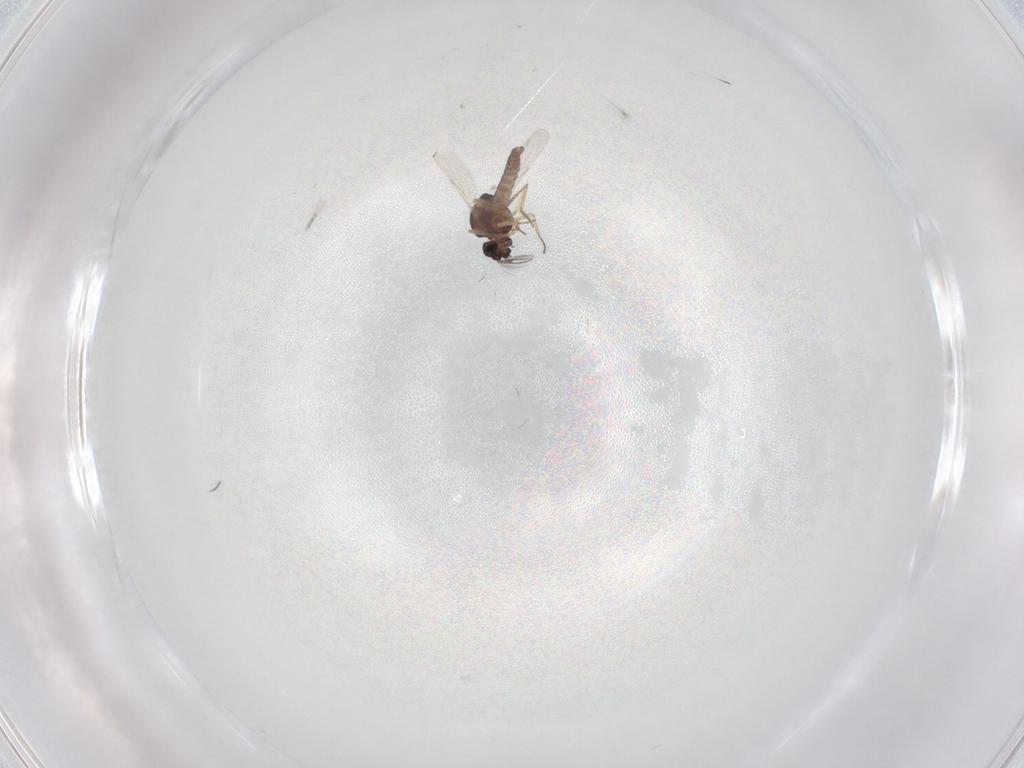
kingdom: Animalia
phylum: Arthropoda
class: Insecta
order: Diptera
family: Ceratopogonidae
